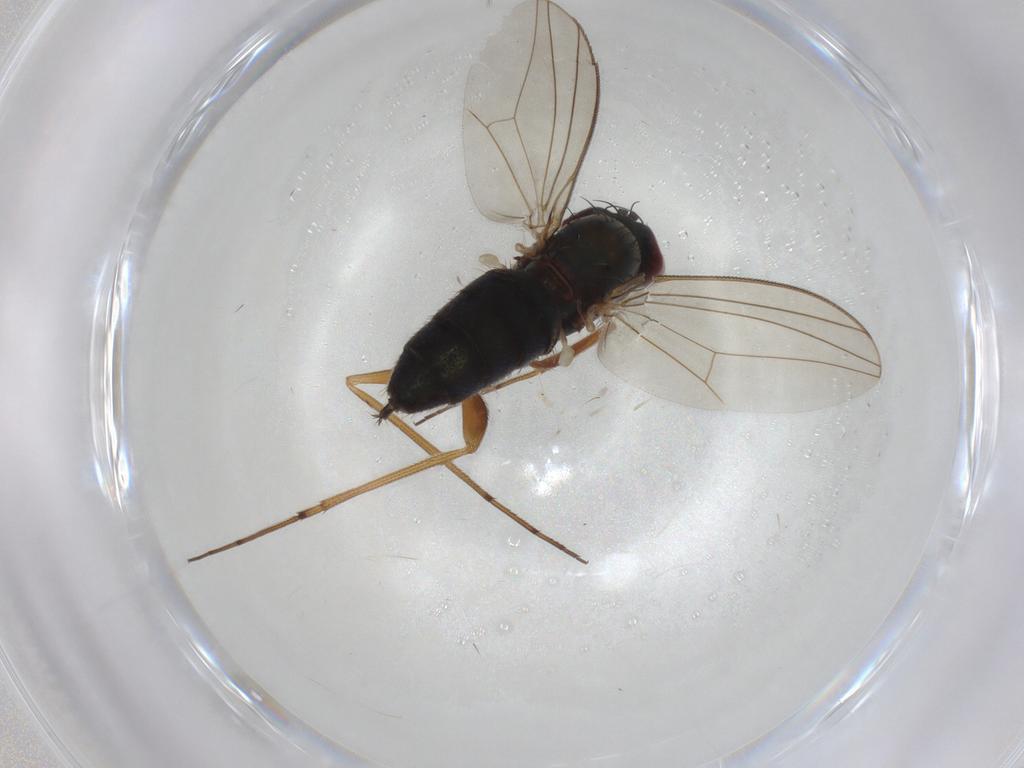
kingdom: Animalia
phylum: Arthropoda
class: Insecta
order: Diptera
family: Dolichopodidae
